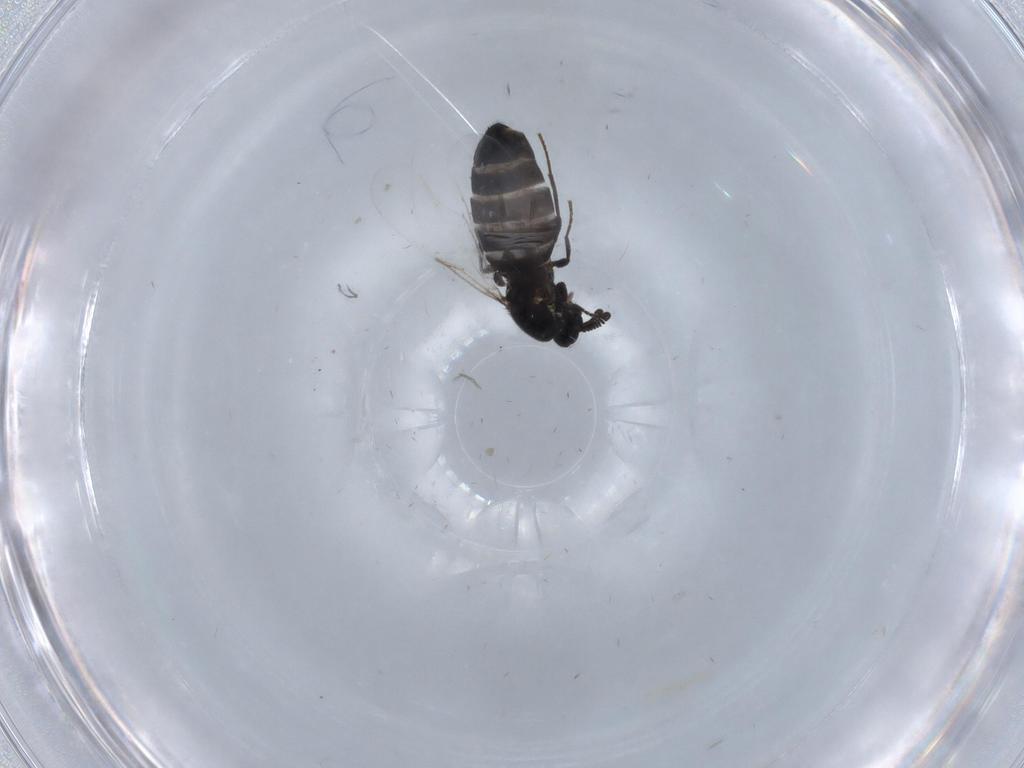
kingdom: Animalia
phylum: Arthropoda
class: Insecta
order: Diptera
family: Scatopsidae
